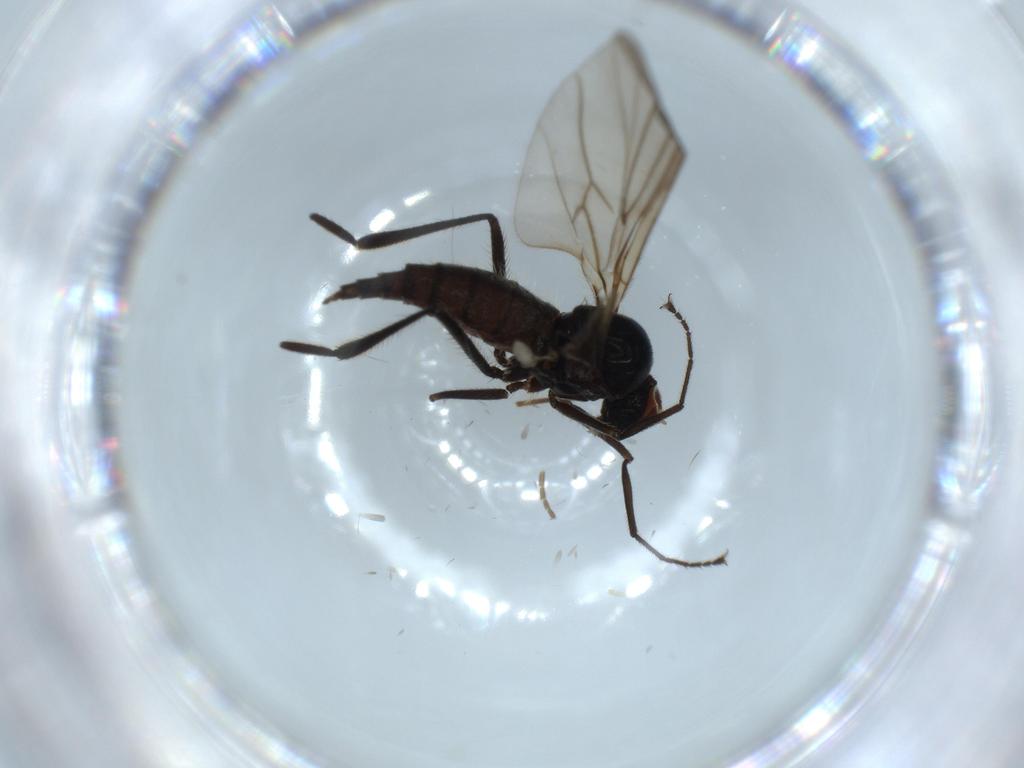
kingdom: Animalia
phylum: Arthropoda
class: Insecta
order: Diptera
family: Hybotidae
